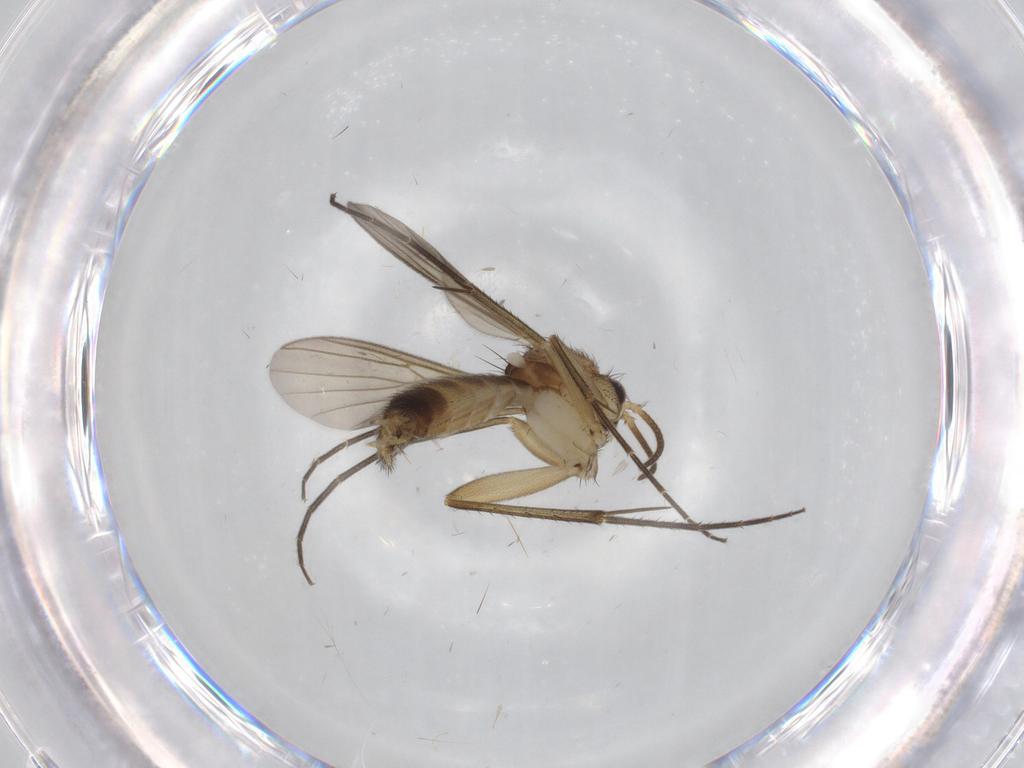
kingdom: Animalia
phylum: Arthropoda
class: Insecta
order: Diptera
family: Mycetophilidae
